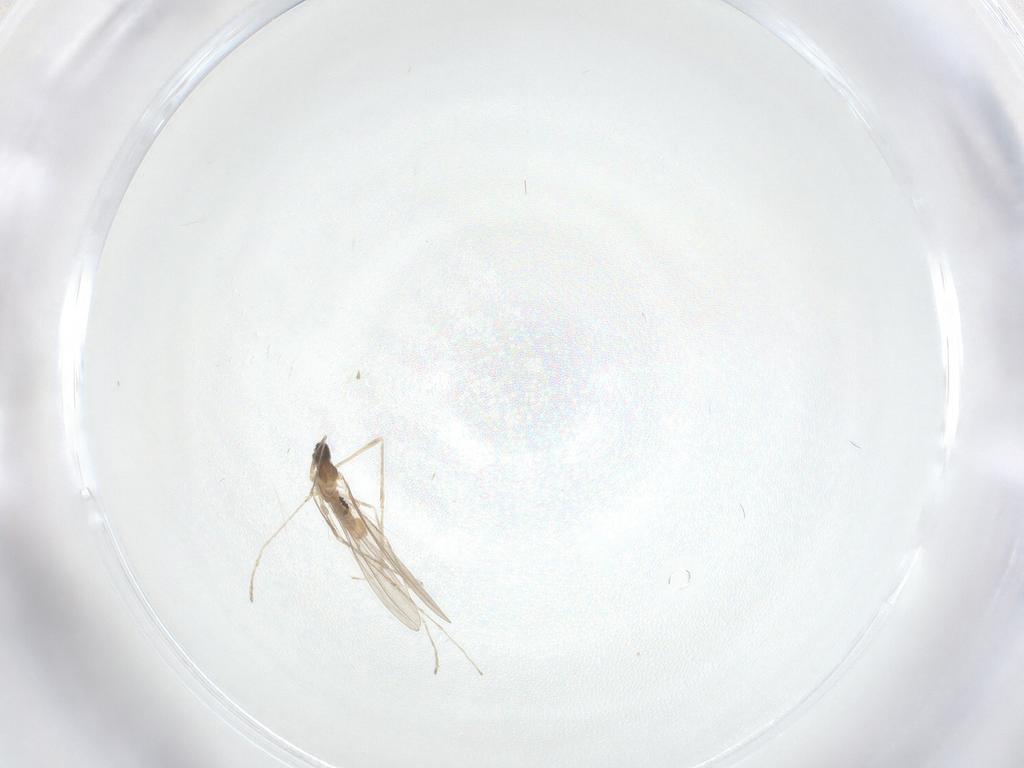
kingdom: Animalia
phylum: Arthropoda
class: Insecta
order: Diptera
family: Cecidomyiidae
